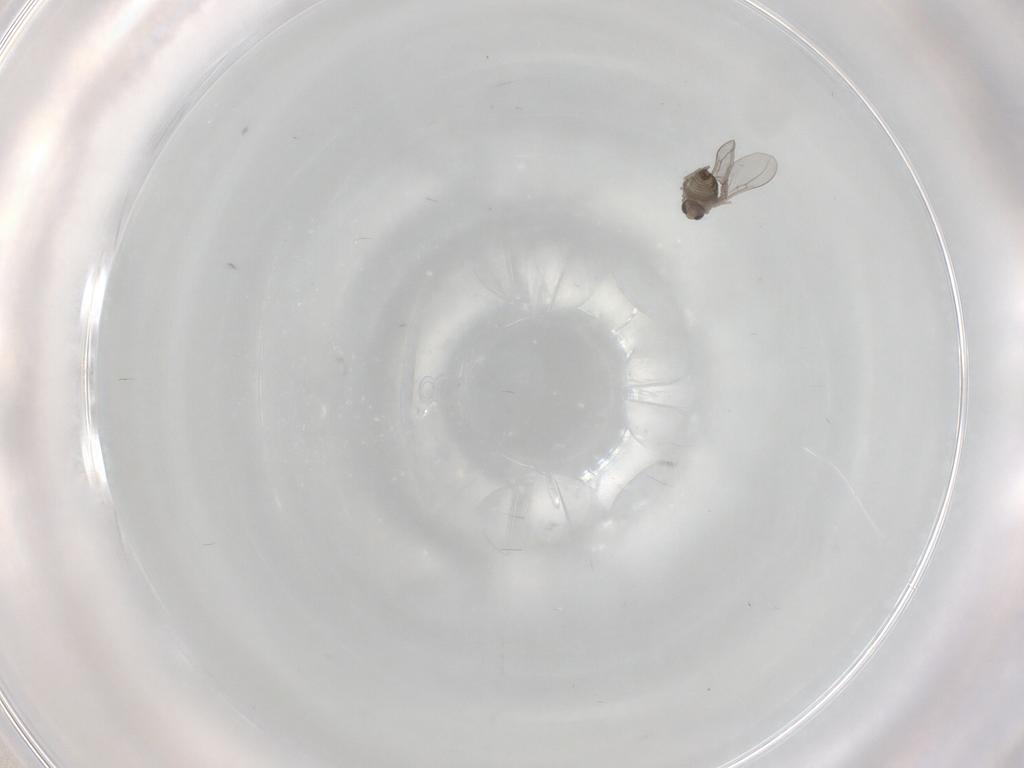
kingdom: Animalia
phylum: Arthropoda
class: Insecta
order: Diptera
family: Cecidomyiidae
